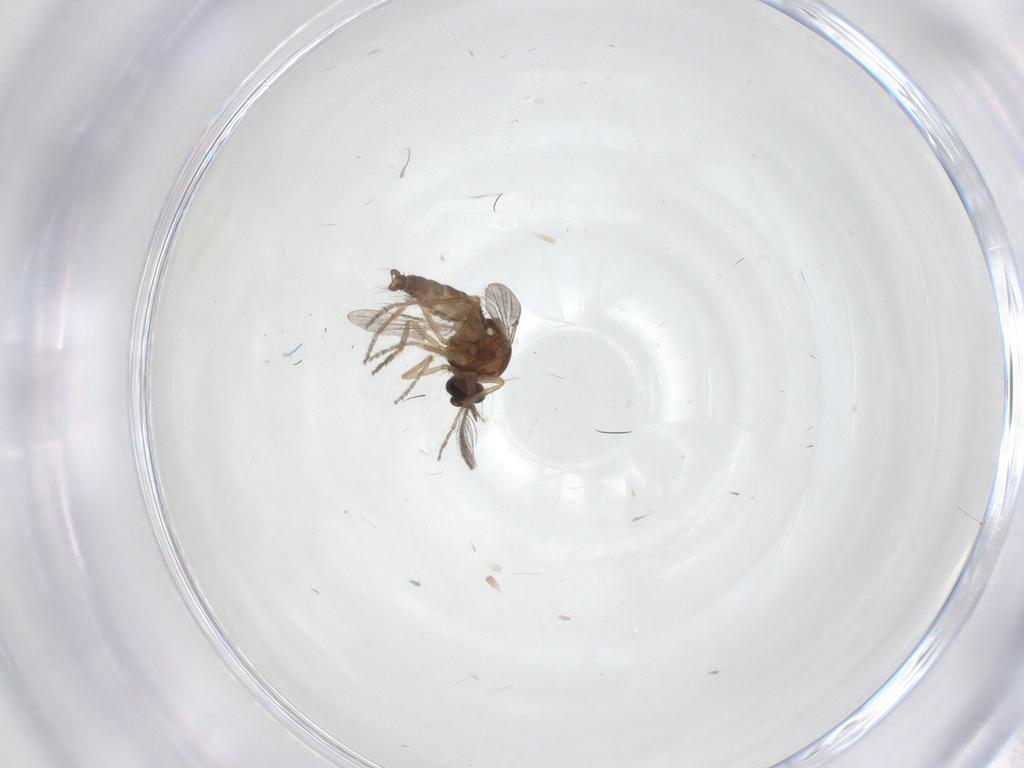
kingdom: Animalia
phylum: Arthropoda
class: Insecta
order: Diptera
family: Ceratopogonidae
